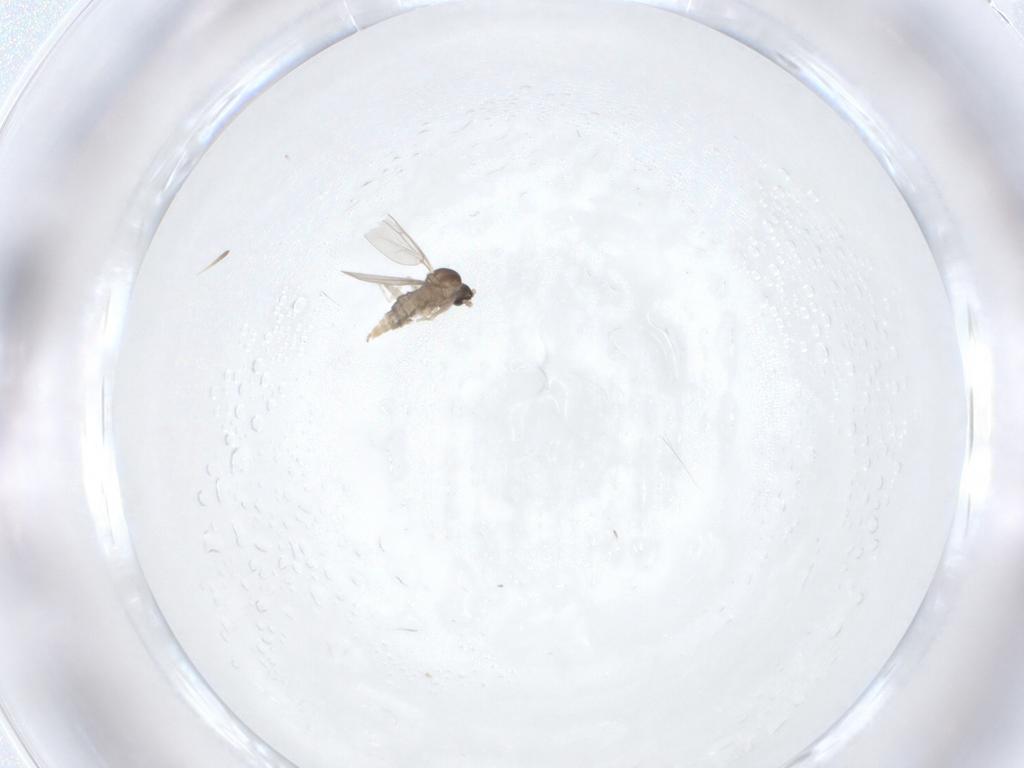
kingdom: Animalia
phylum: Arthropoda
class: Insecta
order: Diptera
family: Cecidomyiidae
